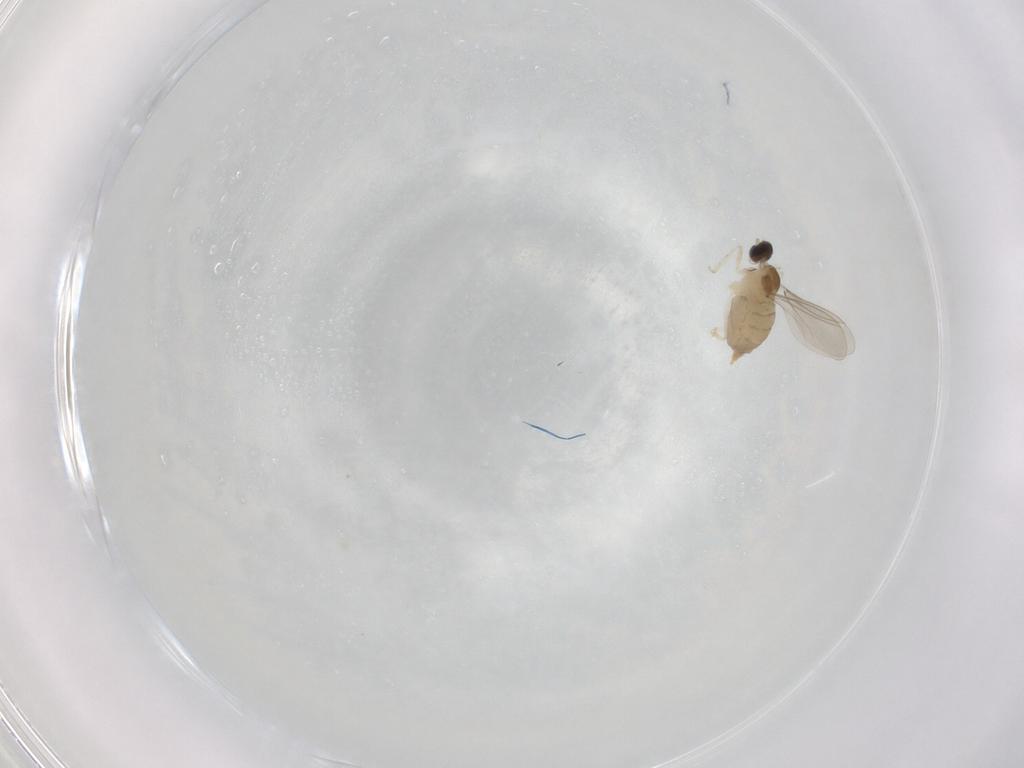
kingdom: Animalia
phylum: Arthropoda
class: Insecta
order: Diptera
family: Cecidomyiidae
